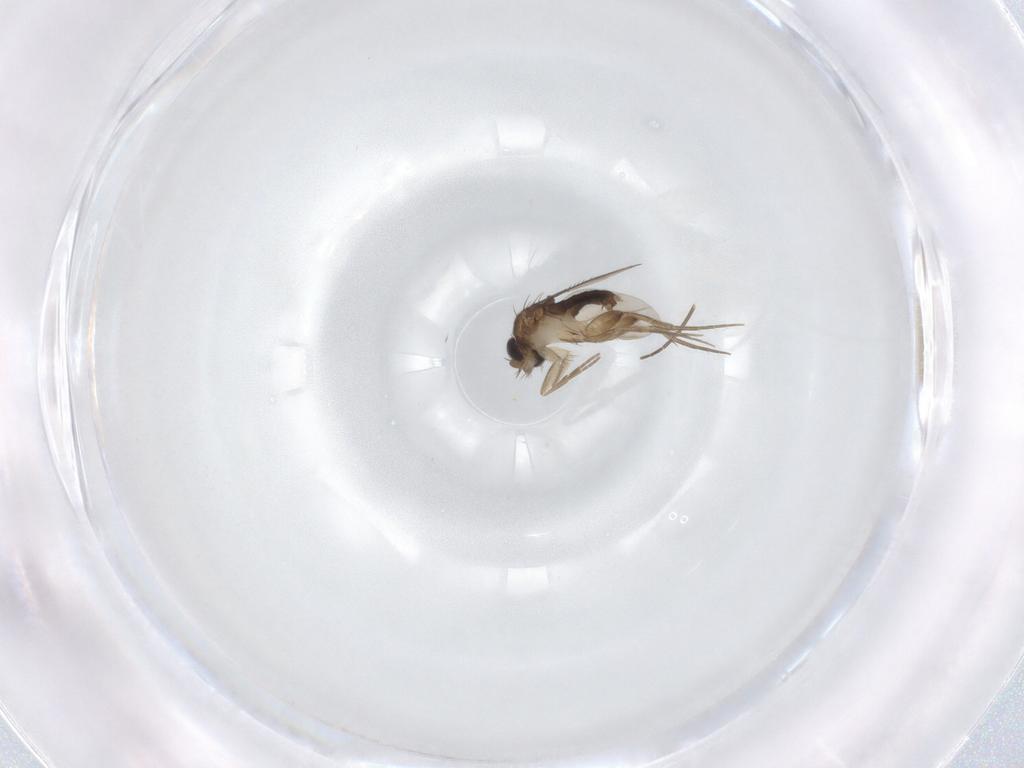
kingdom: Animalia
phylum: Arthropoda
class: Insecta
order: Diptera
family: Phoridae
